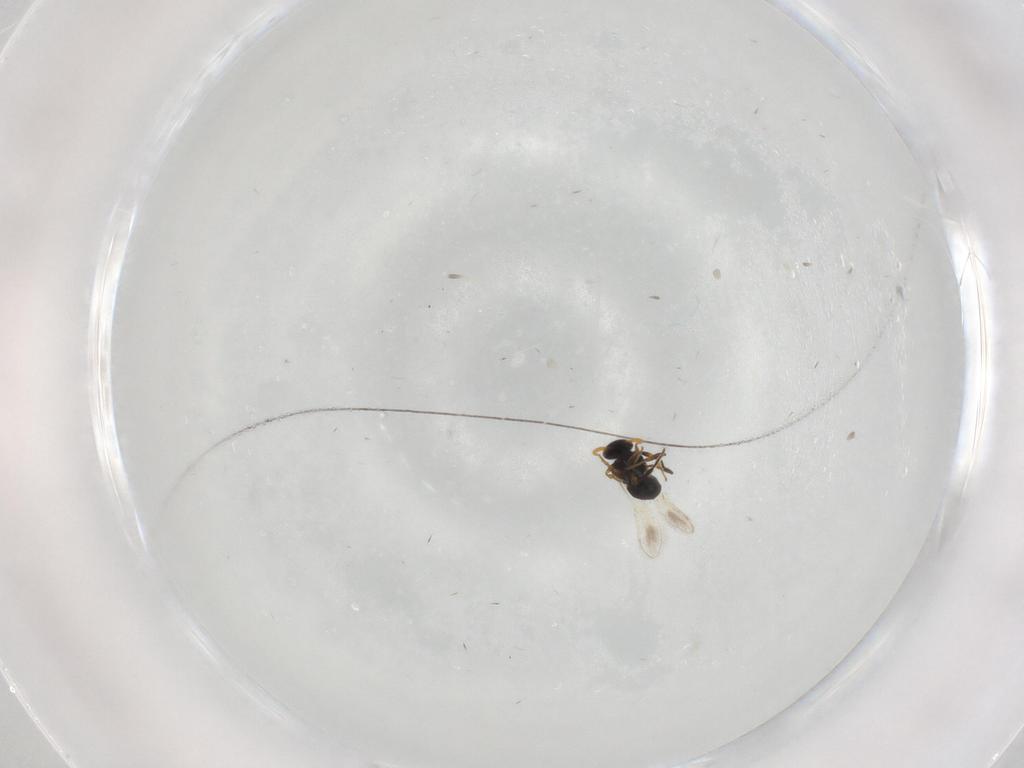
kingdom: Animalia
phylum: Arthropoda
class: Insecta
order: Hymenoptera
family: Platygastridae
